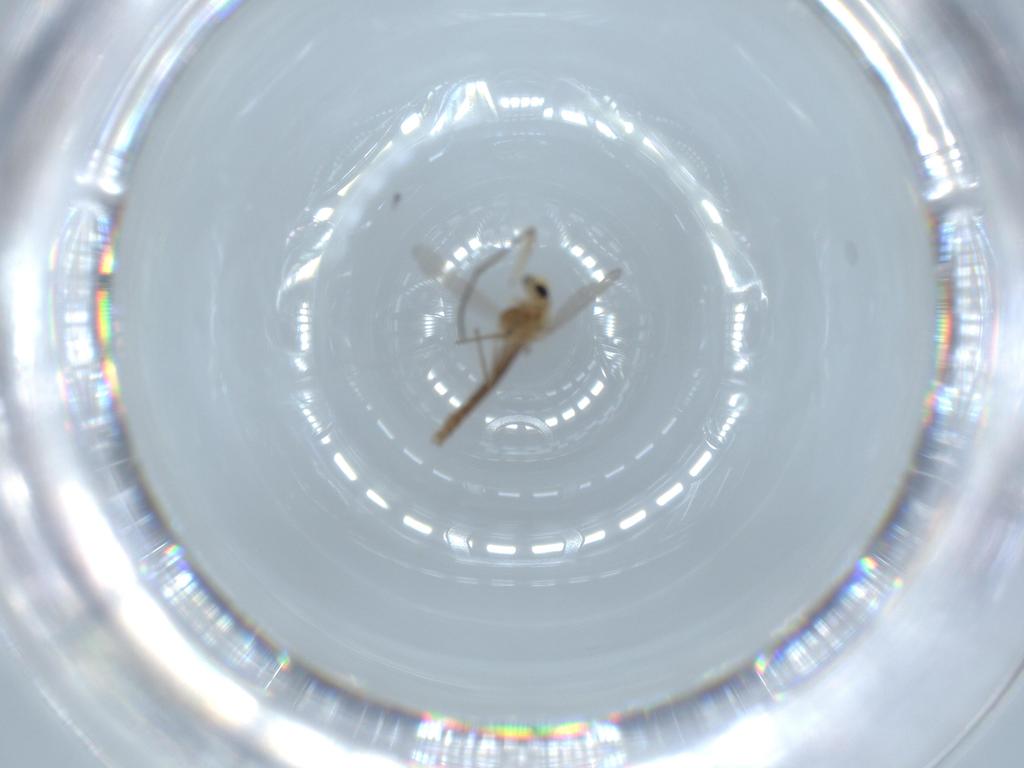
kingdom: Animalia
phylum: Arthropoda
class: Insecta
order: Diptera
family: Chironomidae
